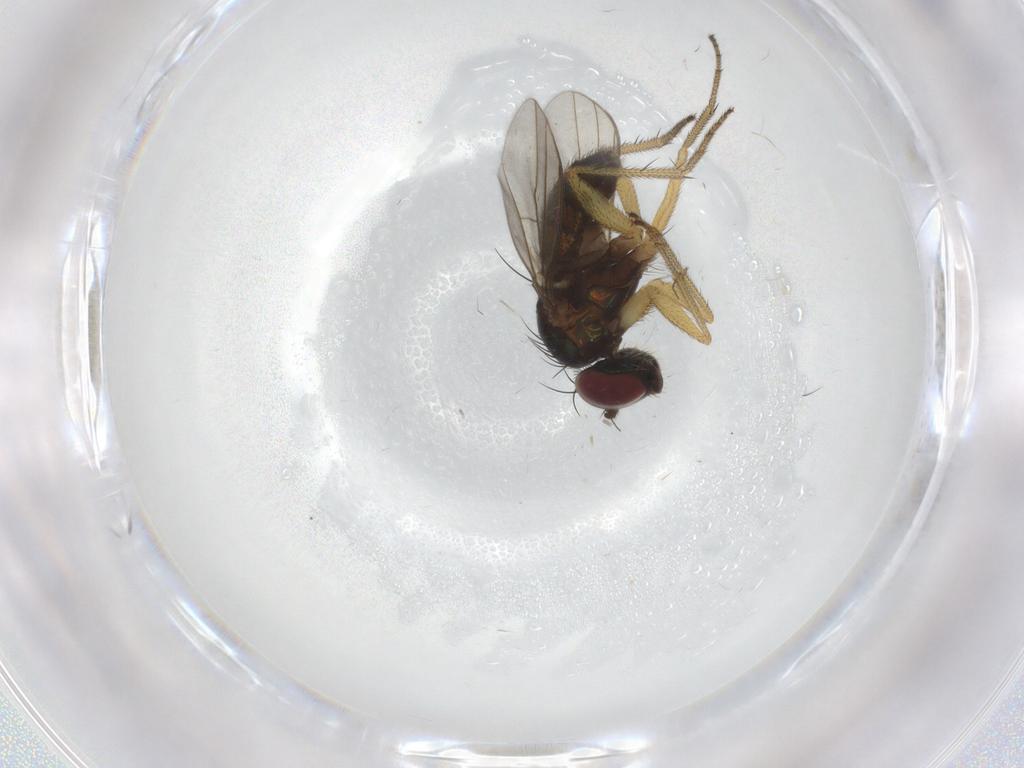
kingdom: Animalia
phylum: Arthropoda
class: Insecta
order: Diptera
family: Chironomidae
